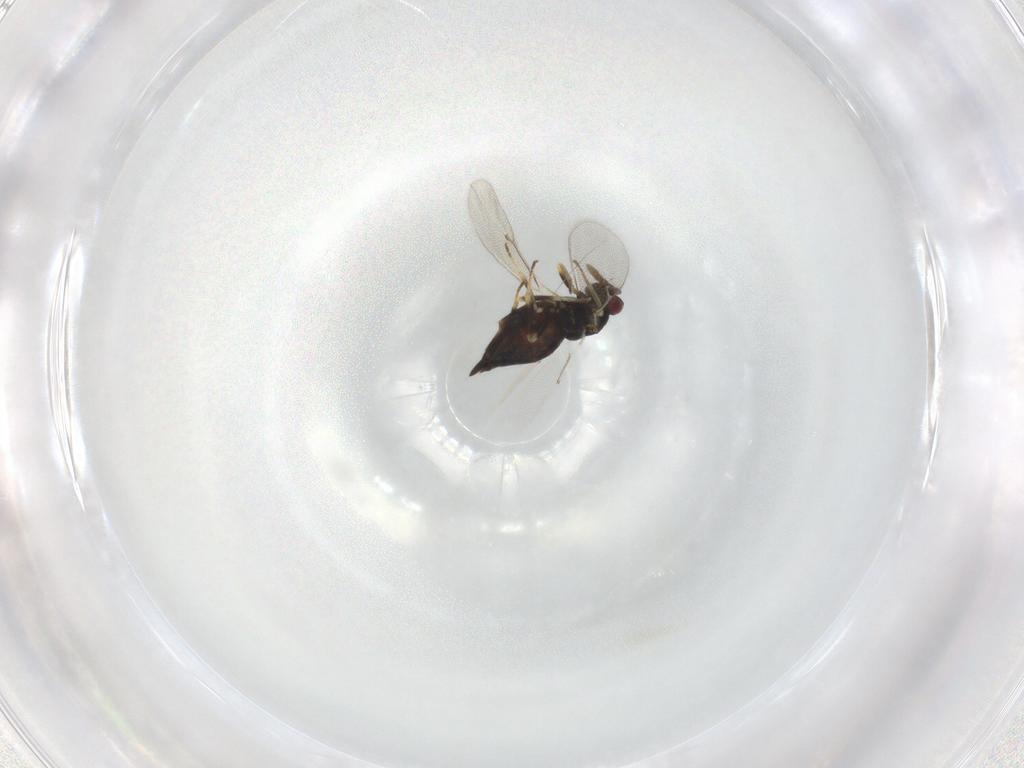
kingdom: Animalia
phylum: Arthropoda
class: Insecta
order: Hymenoptera
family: Eulophidae
